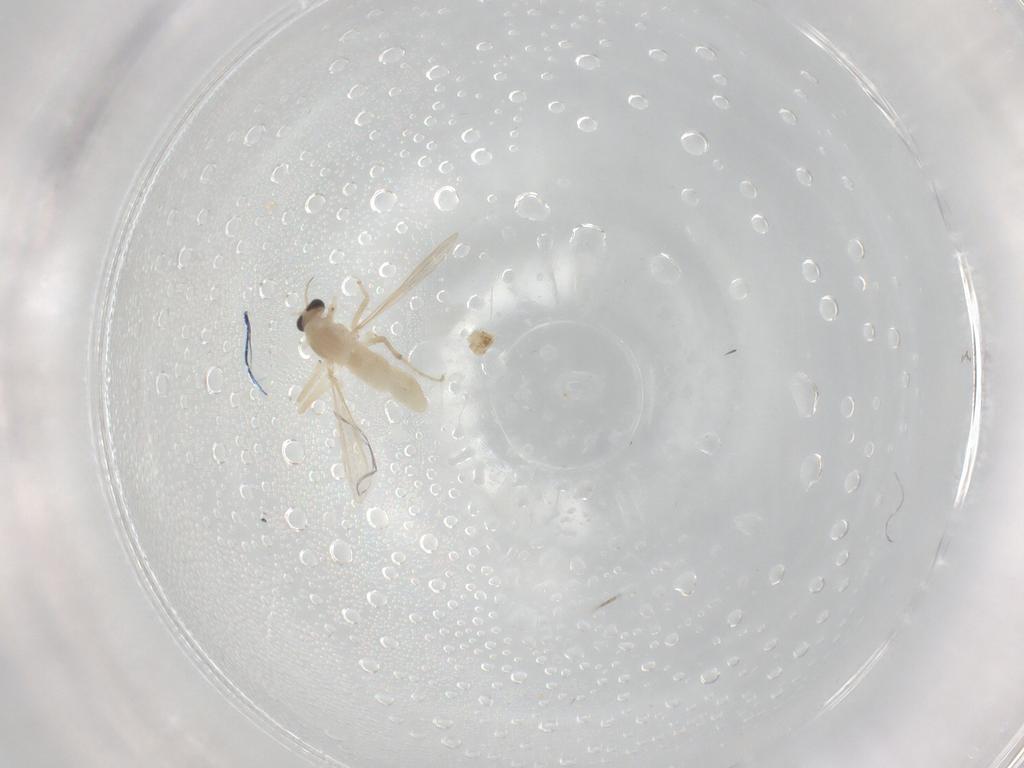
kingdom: Animalia
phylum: Arthropoda
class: Insecta
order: Diptera
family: Chironomidae
